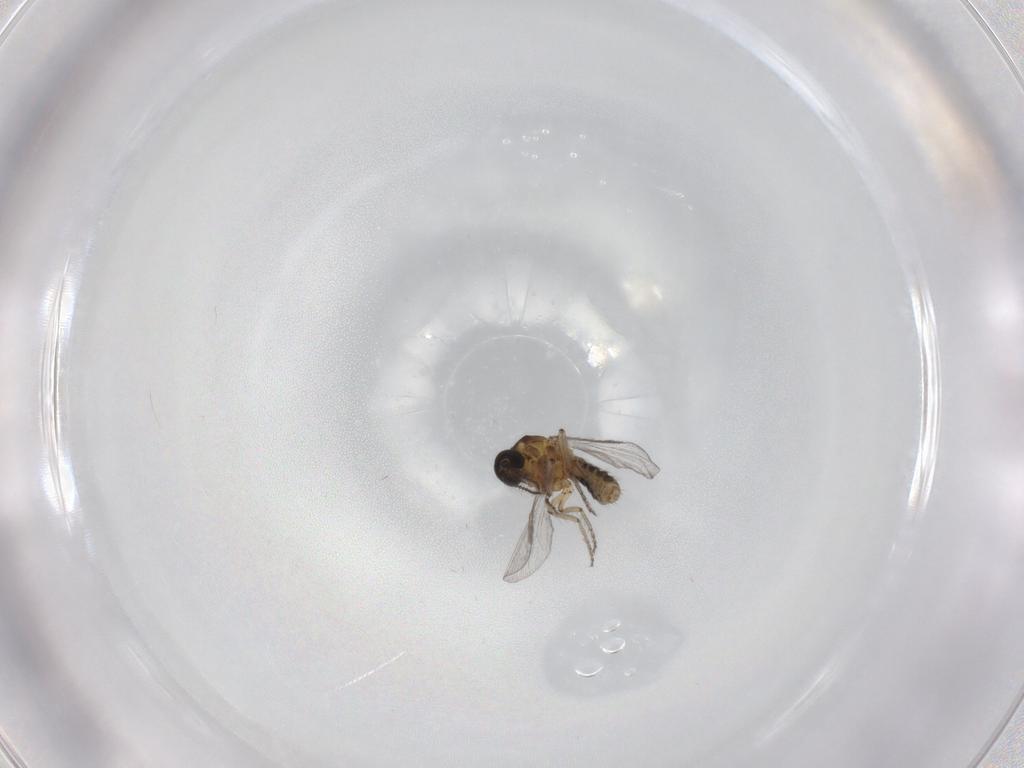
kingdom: Animalia
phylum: Arthropoda
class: Insecta
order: Diptera
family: Ceratopogonidae
